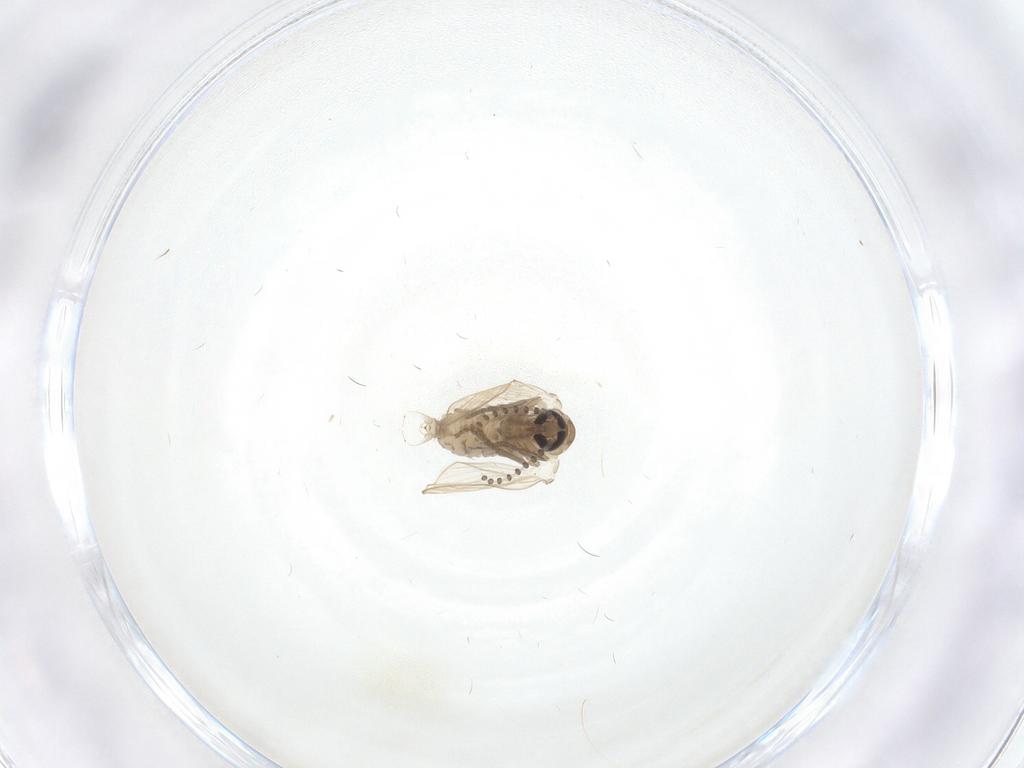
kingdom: Animalia
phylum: Arthropoda
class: Insecta
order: Diptera
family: Psychodidae
